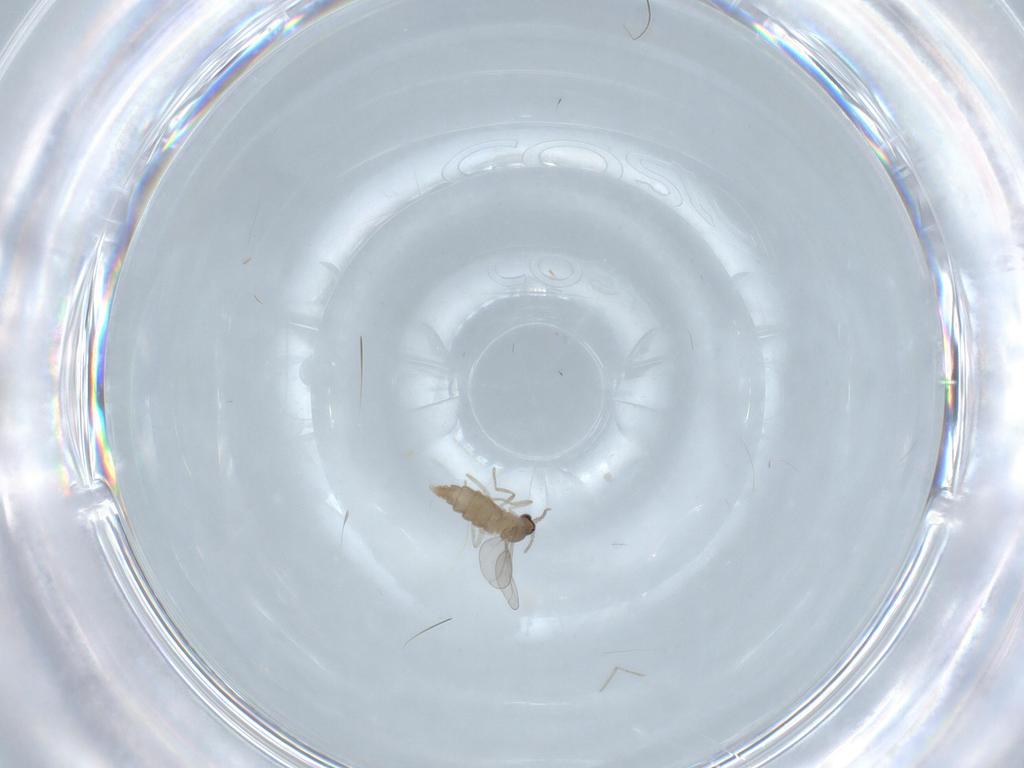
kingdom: Animalia
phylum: Arthropoda
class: Insecta
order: Diptera
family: Cecidomyiidae
